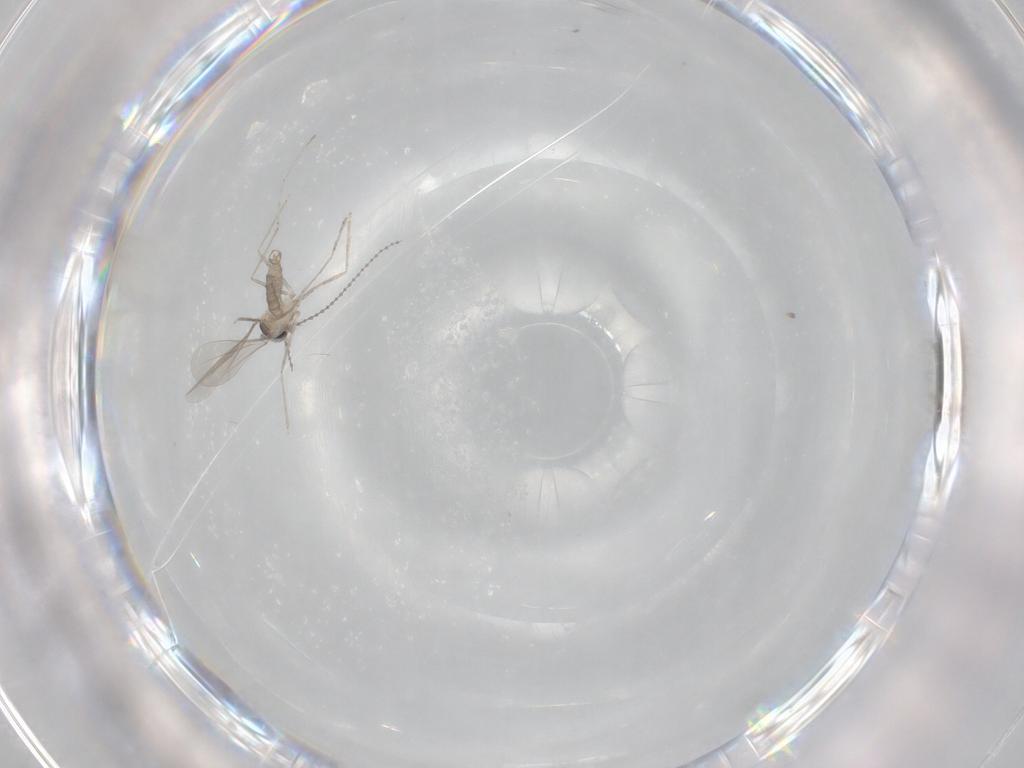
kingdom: Animalia
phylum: Arthropoda
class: Insecta
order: Diptera
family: Cecidomyiidae
